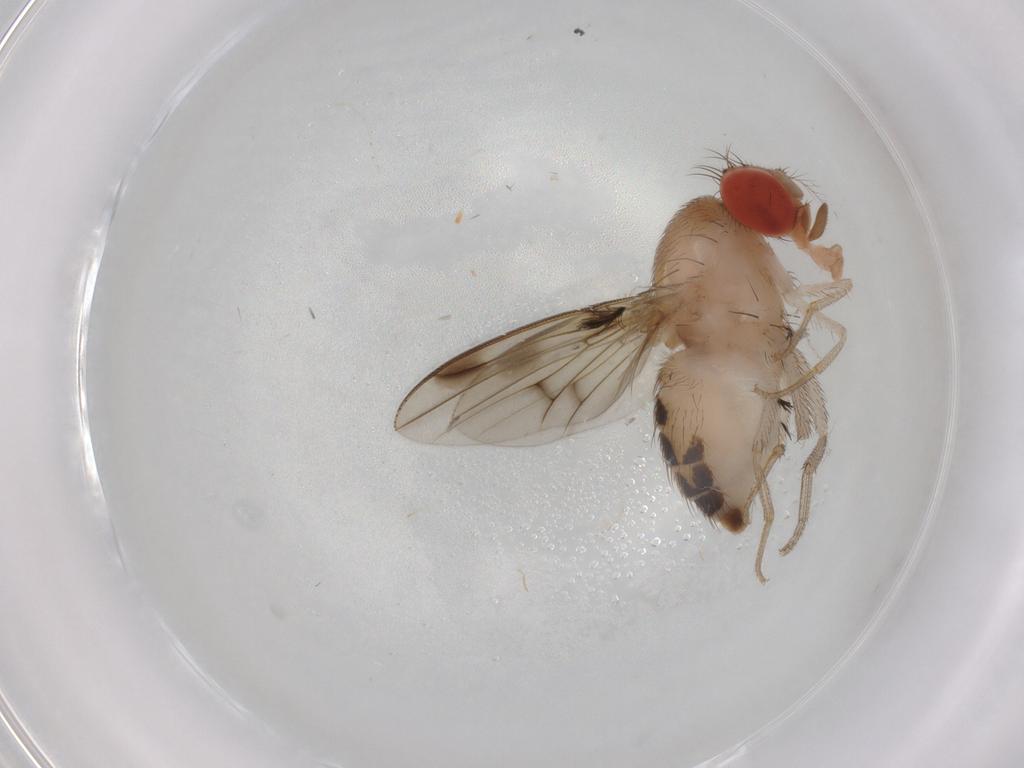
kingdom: Animalia
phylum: Arthropoda
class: Insecta
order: Diptera
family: Drosophilidae
